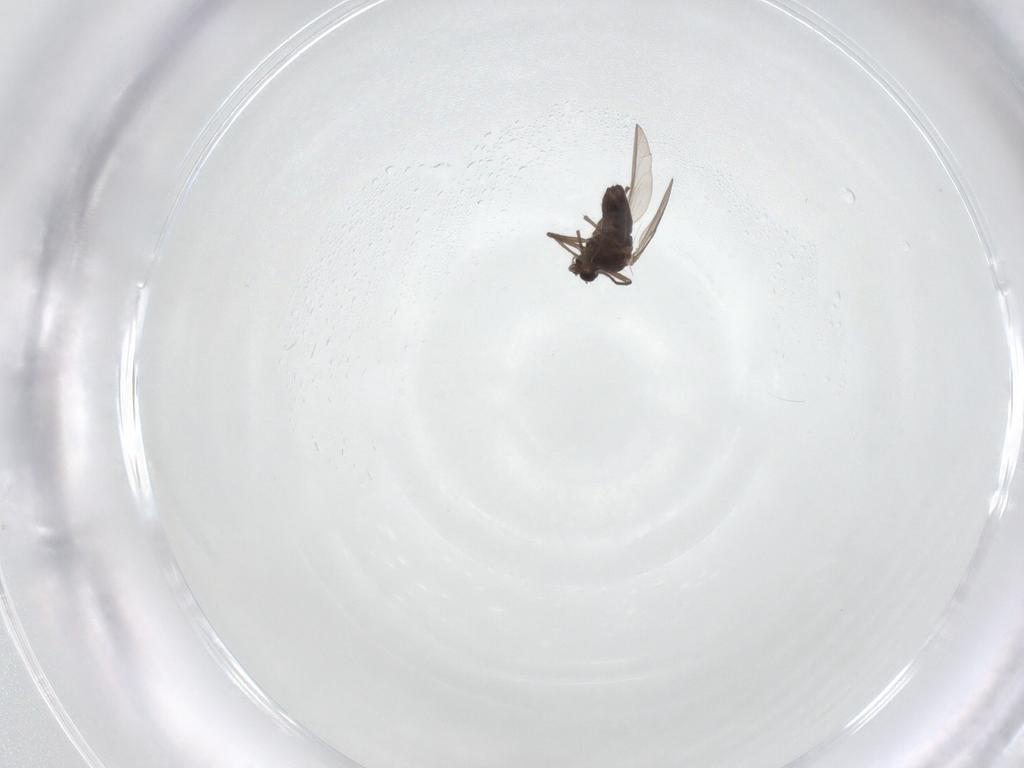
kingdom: Animalia
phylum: Arthropoda
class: Insecta
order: Diptera
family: Chironomidae
